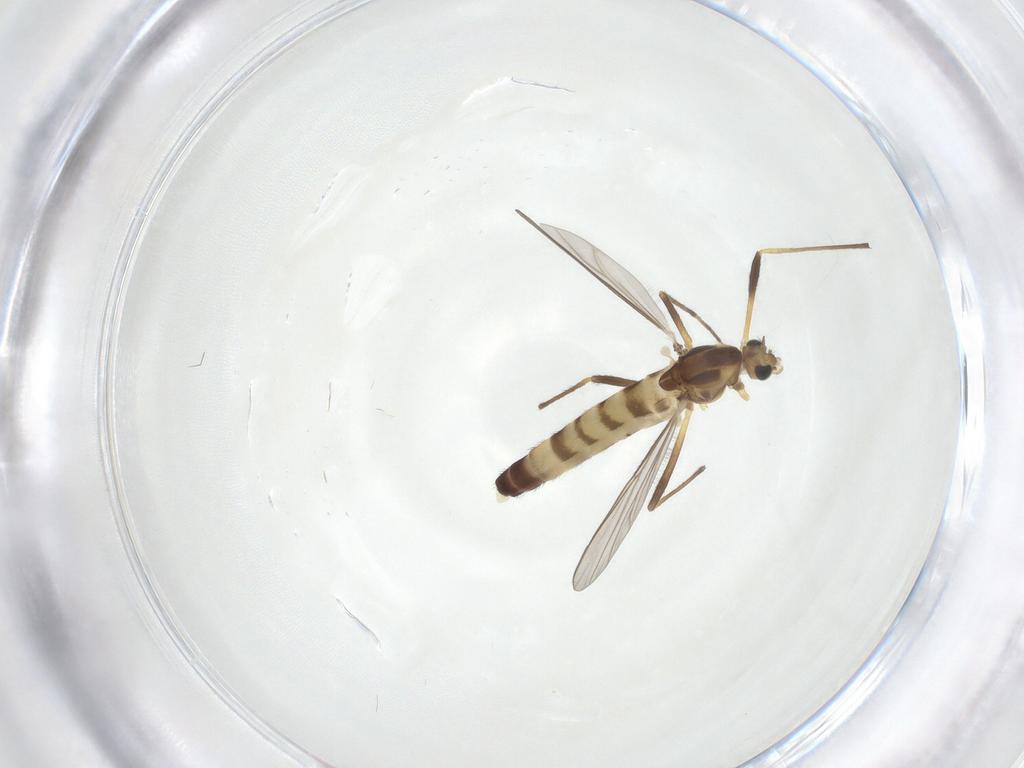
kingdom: Animalia
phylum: Arthropoda
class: Insecta
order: Diptera
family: Chironomidae
